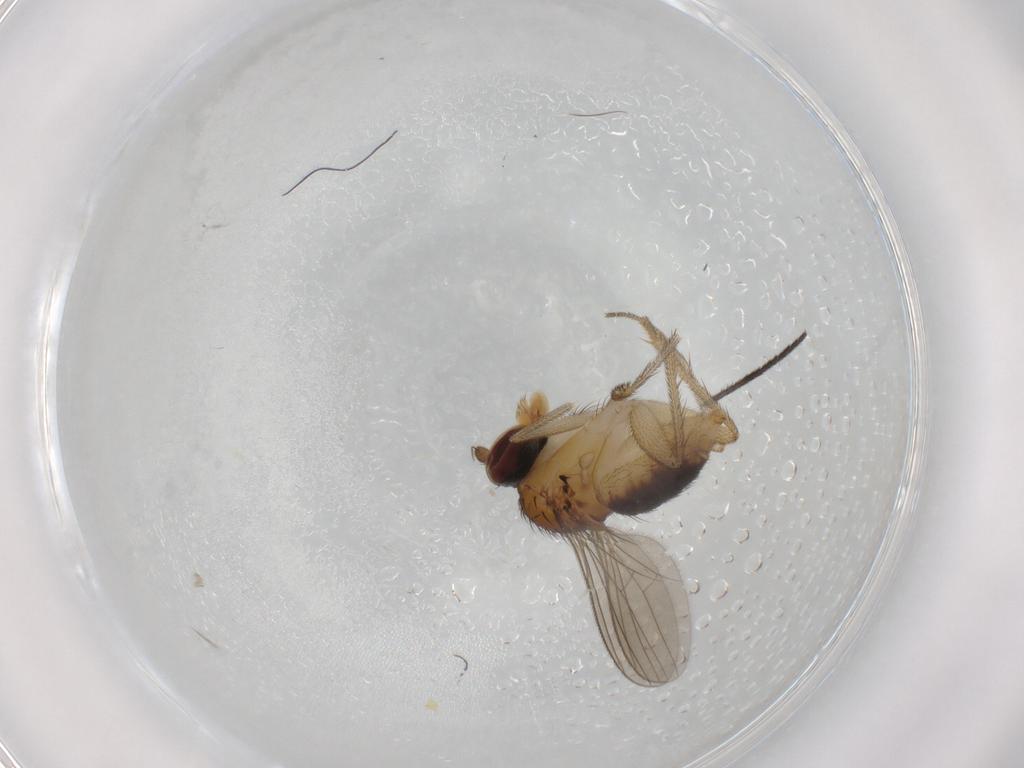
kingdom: Animalia
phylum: Arthropoda
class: Insecta
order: Diptera
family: Dolichopodidae
